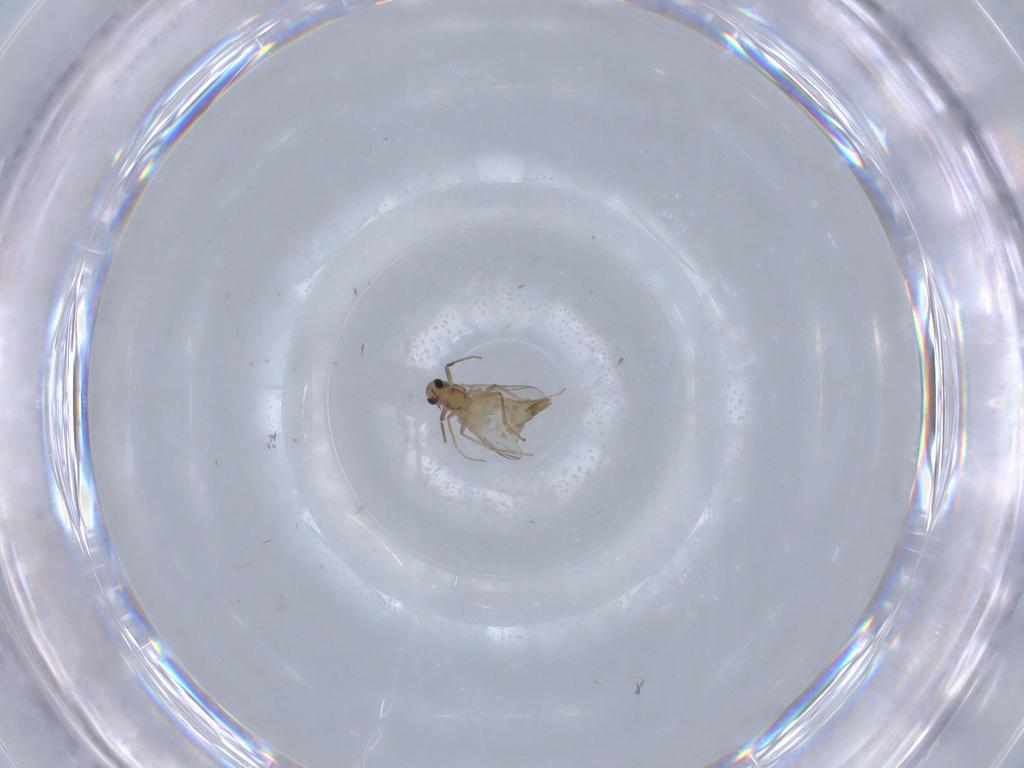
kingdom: Animalia
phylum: Arthropoda
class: Insecta
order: Diptera
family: Chironomidae
